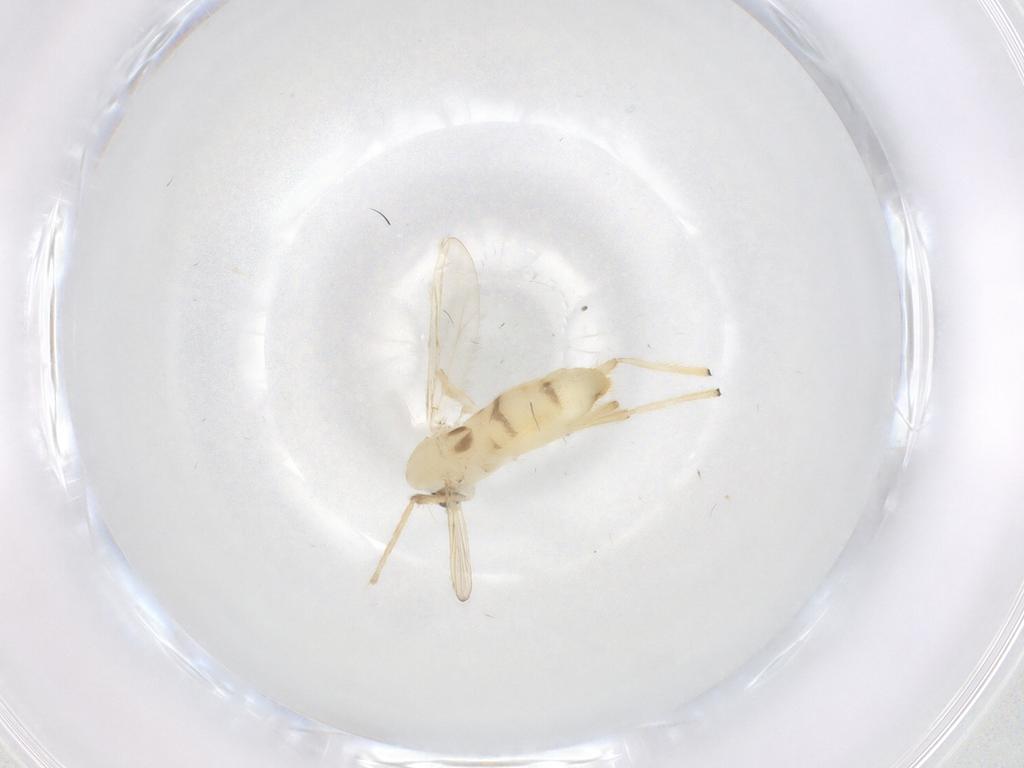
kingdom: Animalia
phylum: Arthropoda
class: Insecta
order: Diptera
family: Chironomidae
